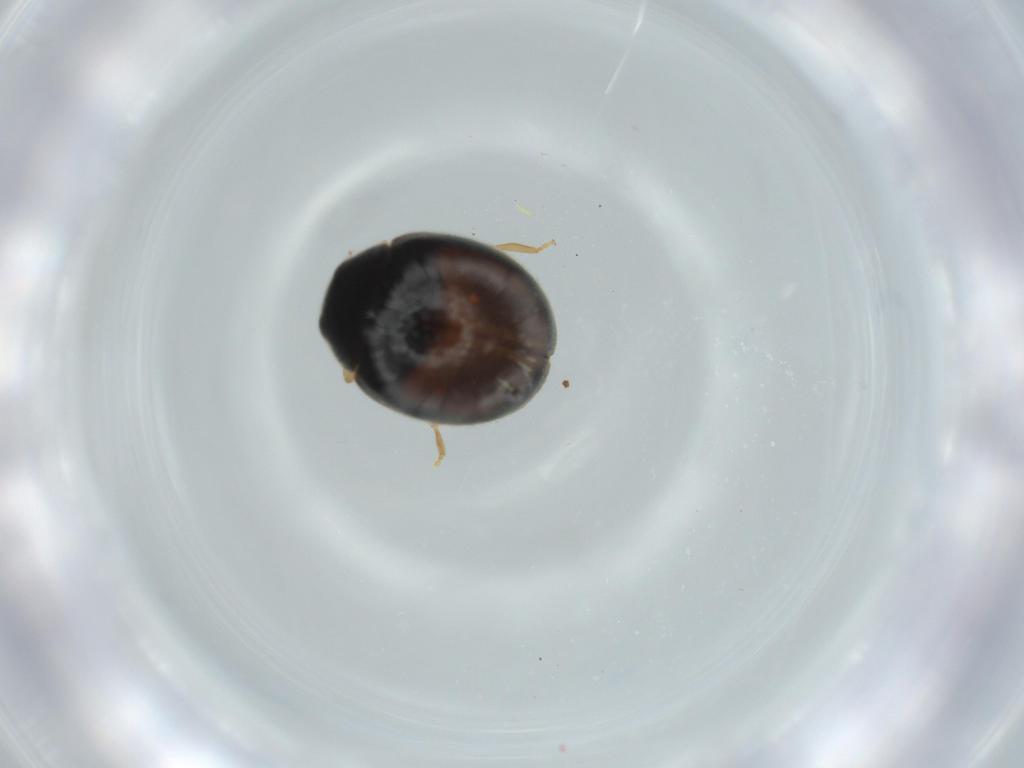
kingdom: Animalia
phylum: Arthropoda
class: Insecta
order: Coleoptera
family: Coccinellidae
